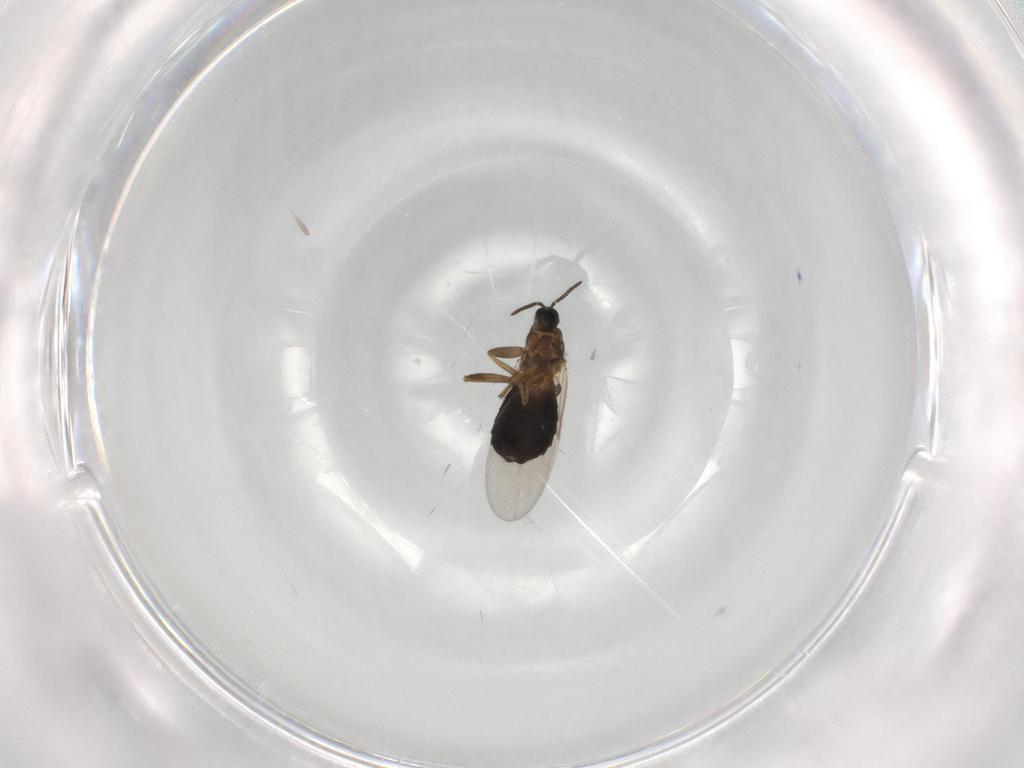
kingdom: Animalia
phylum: Arthropoda
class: Insecta
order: Diptera
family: Scatopsidae
